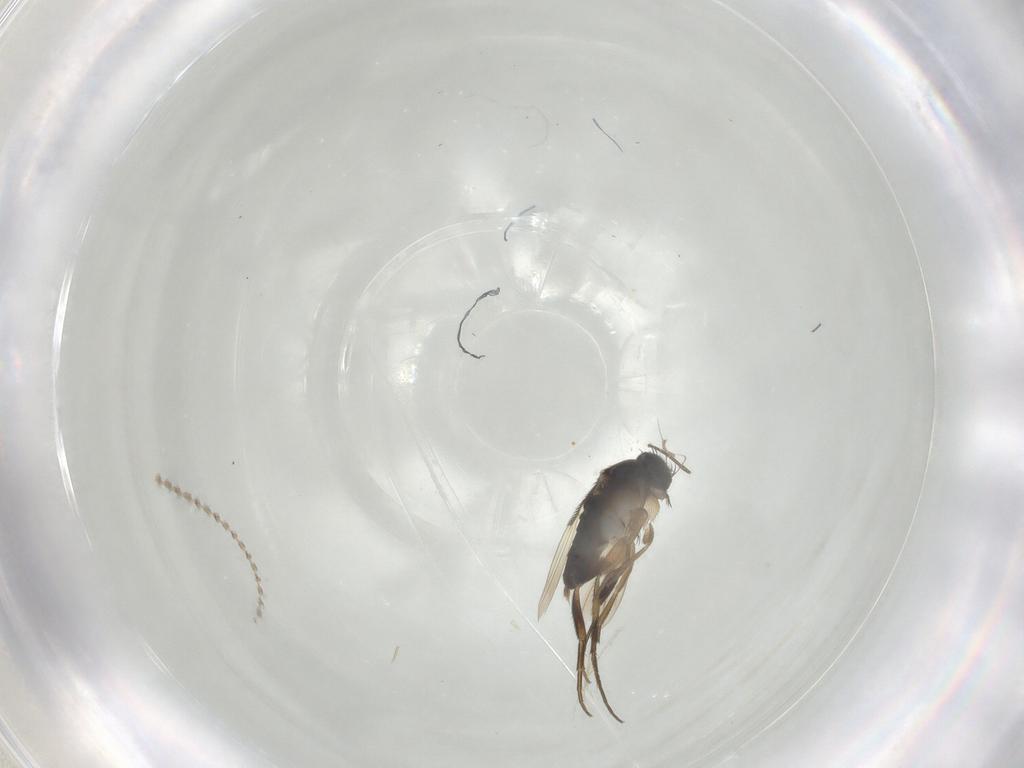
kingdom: Animalia
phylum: Arthropoda
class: Insecta
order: Diptera
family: Phoridae
